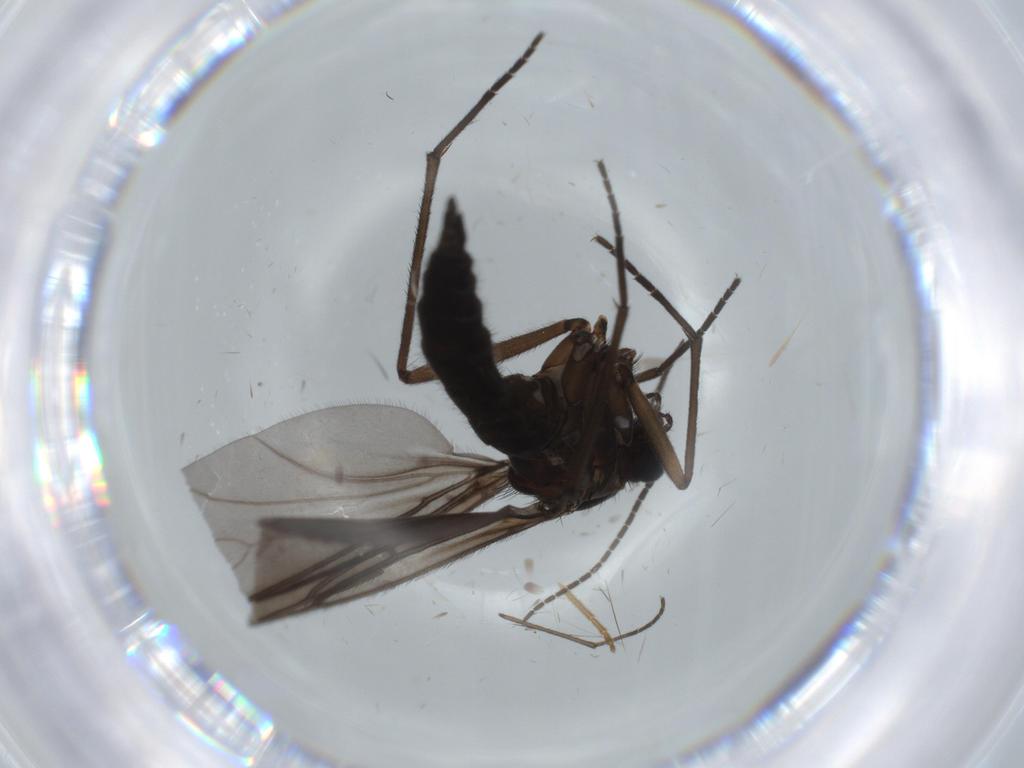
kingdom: Animalia
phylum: Arthropoda
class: Insecta
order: Diptera
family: Sciaridae
